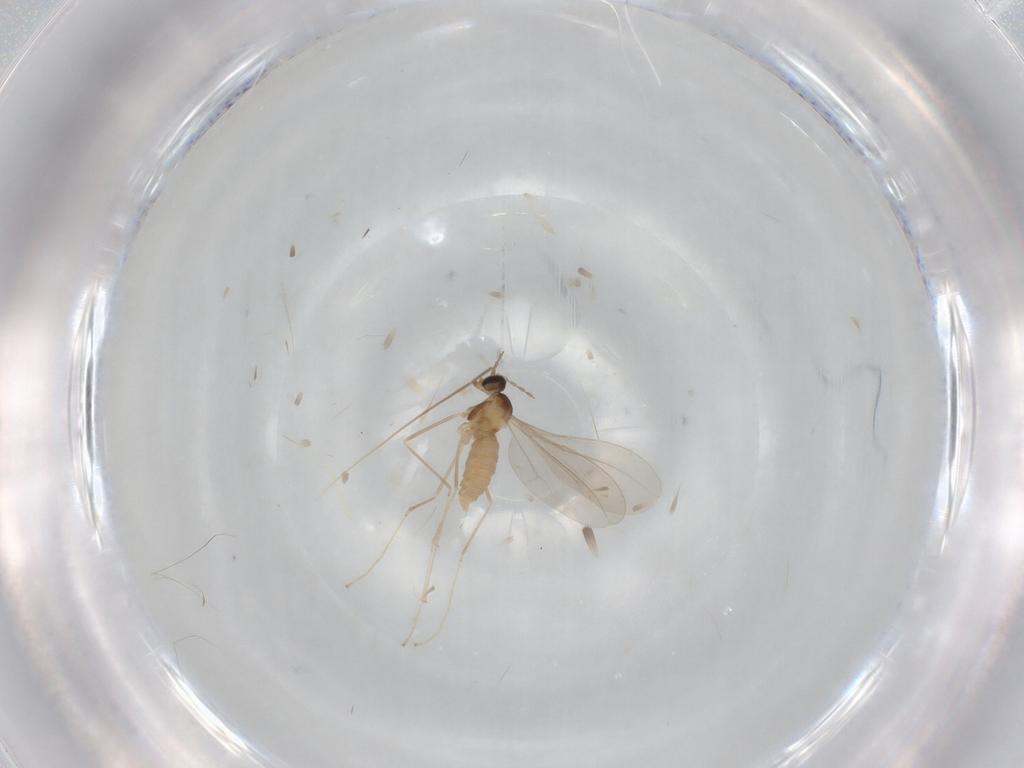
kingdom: Animalia
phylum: Arthropoda
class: Insecta
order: Diptera
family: Cecidomyiidae
